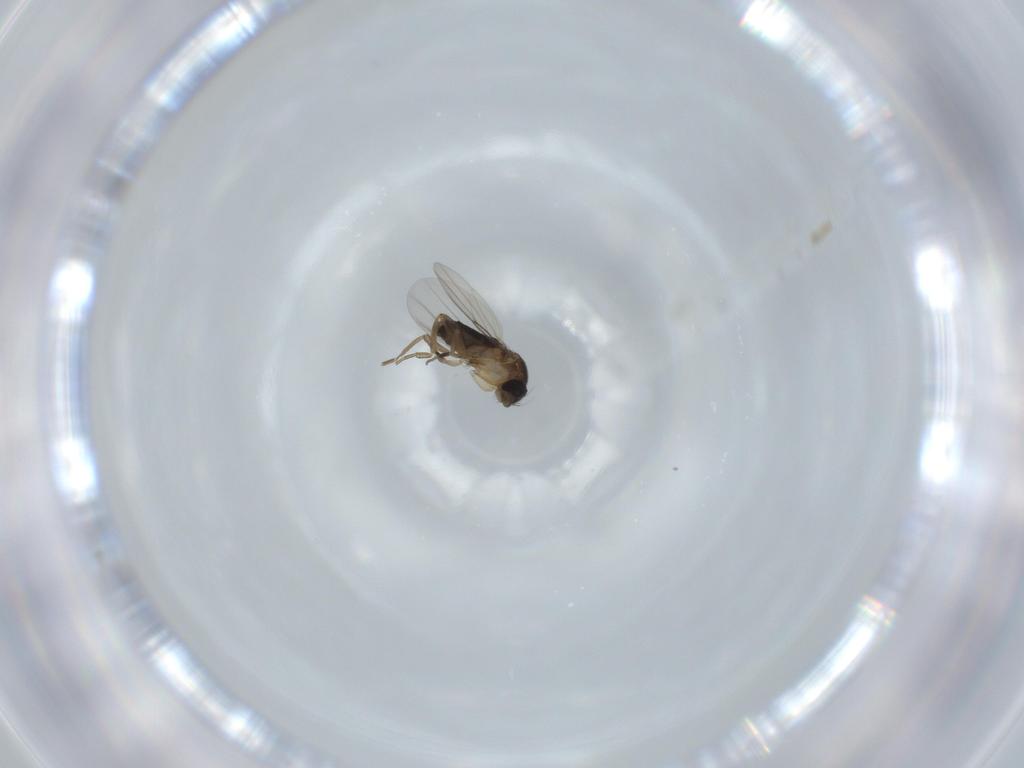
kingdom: Animalia
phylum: Arthropoda
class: Insecta
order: Diptera
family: Phoridae
